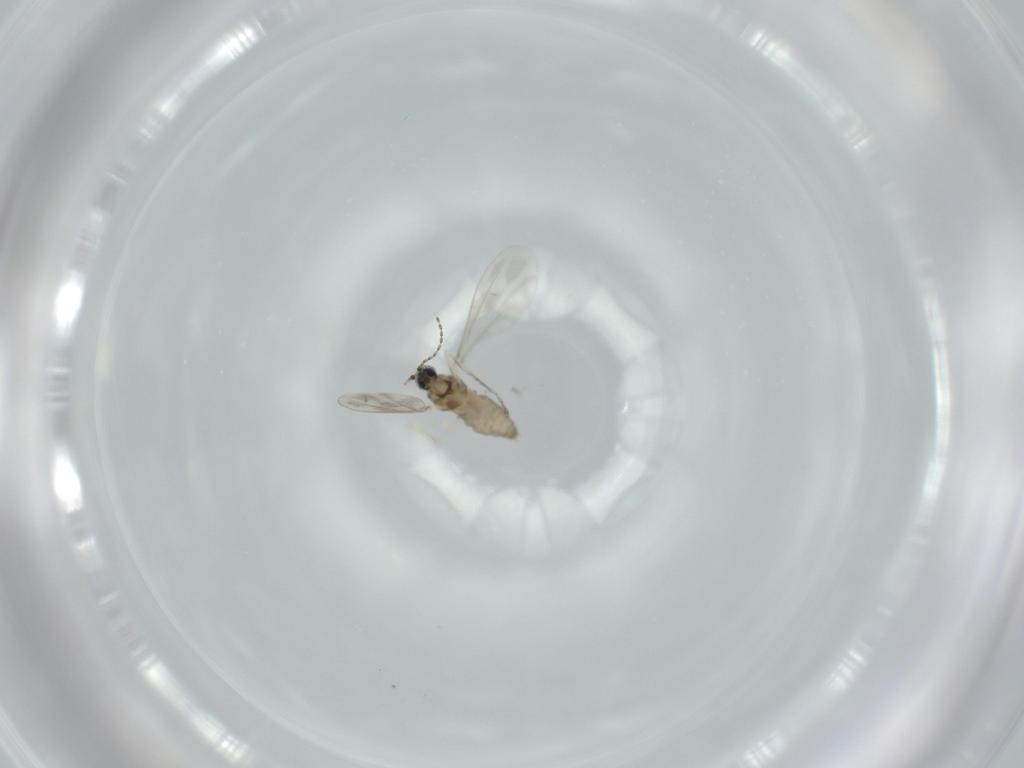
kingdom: Animalia
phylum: Arthropoda
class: Insecta
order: Diptera
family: Cecidomyiidae
